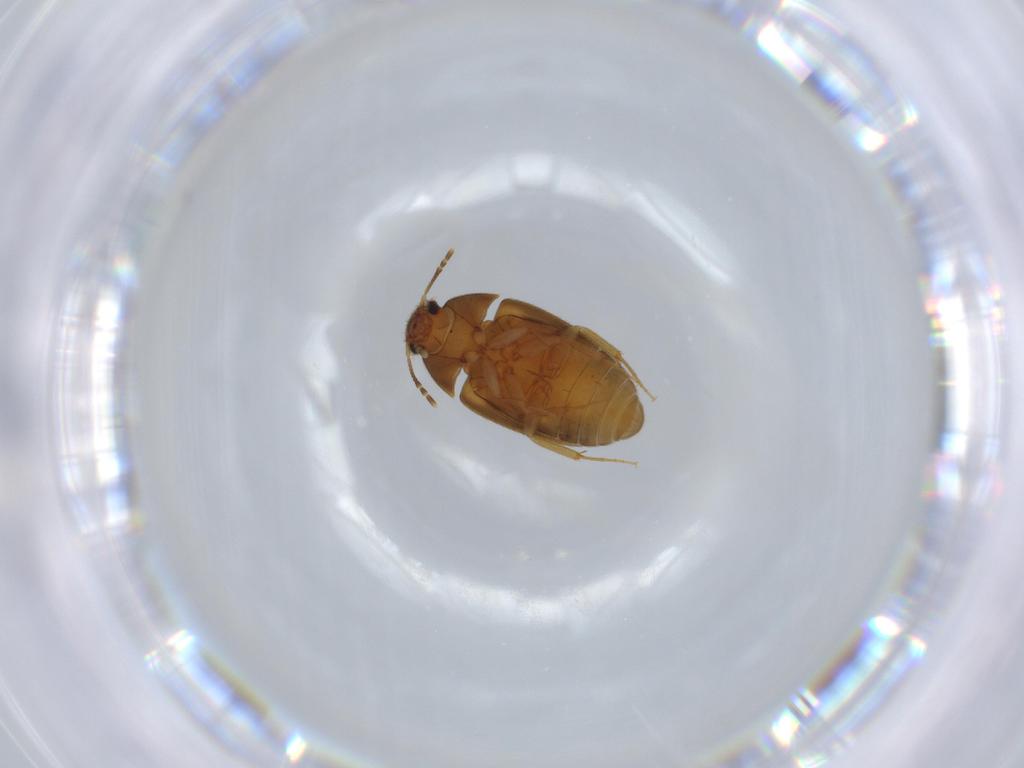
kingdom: Animalia
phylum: Arthropoda
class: Insecta
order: Coleoptera
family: Mycetophagidae
